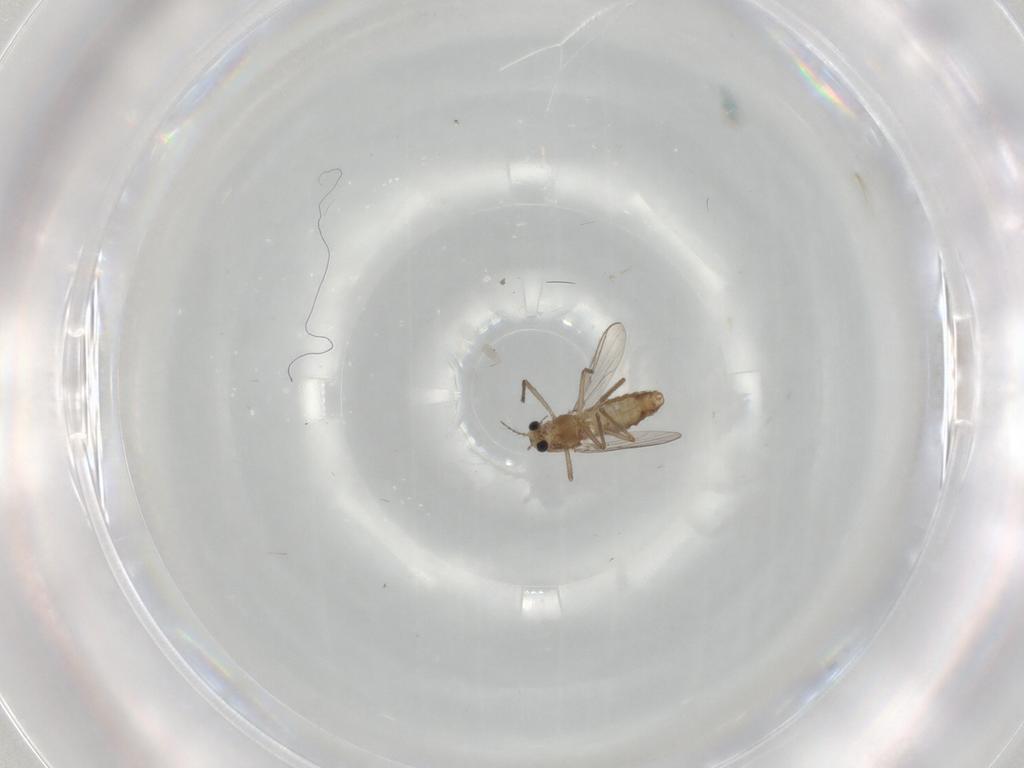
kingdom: Animalia
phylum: Arthropoda
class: Insecta
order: Diptera
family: Chironomidae
